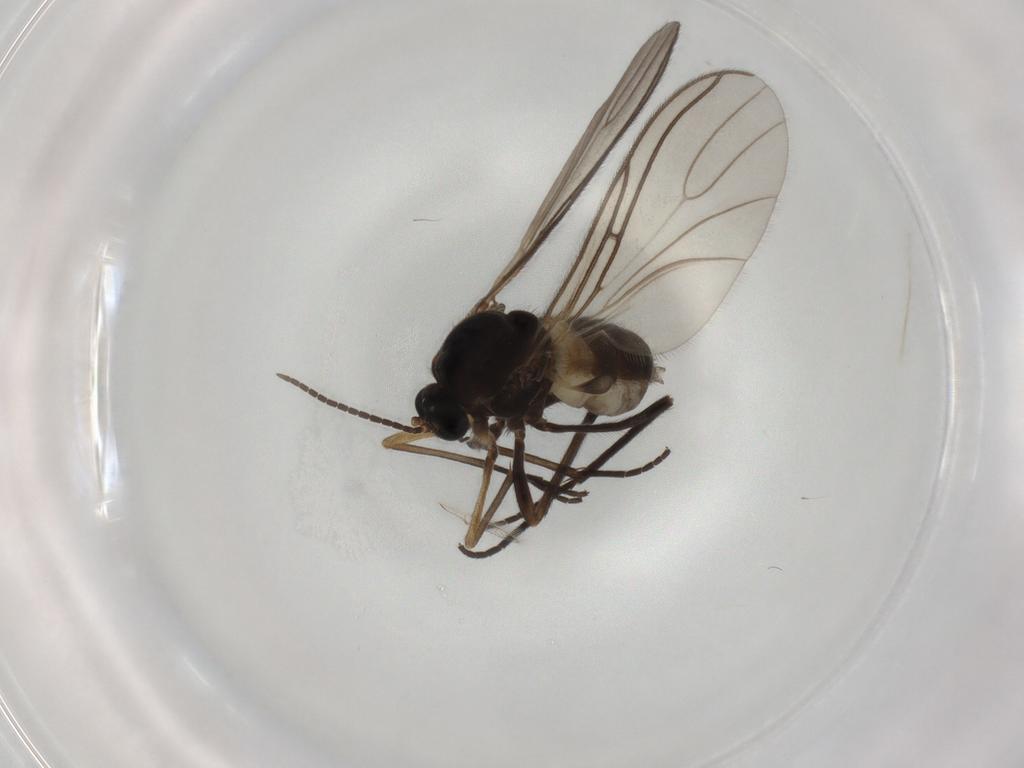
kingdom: Animalia
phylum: Arthropoda
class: Insecta
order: Diptera
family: Sciaridae
